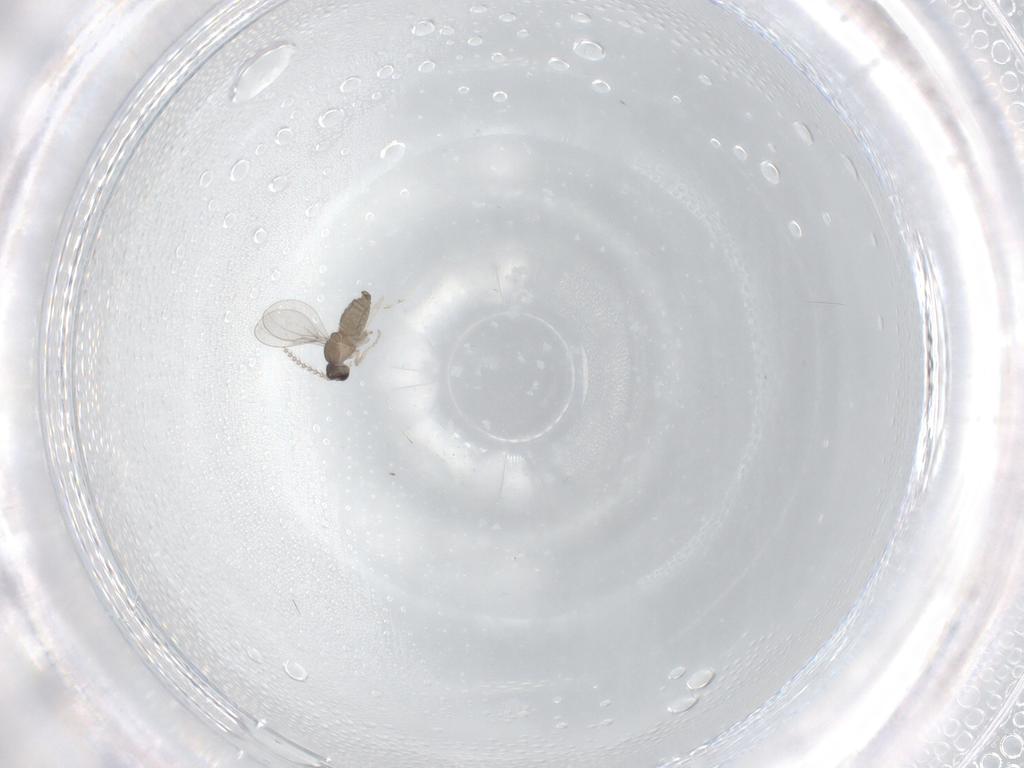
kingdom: Animalia
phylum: Arthropoda
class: Insecta
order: Diptera
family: Cecidomyiidae
